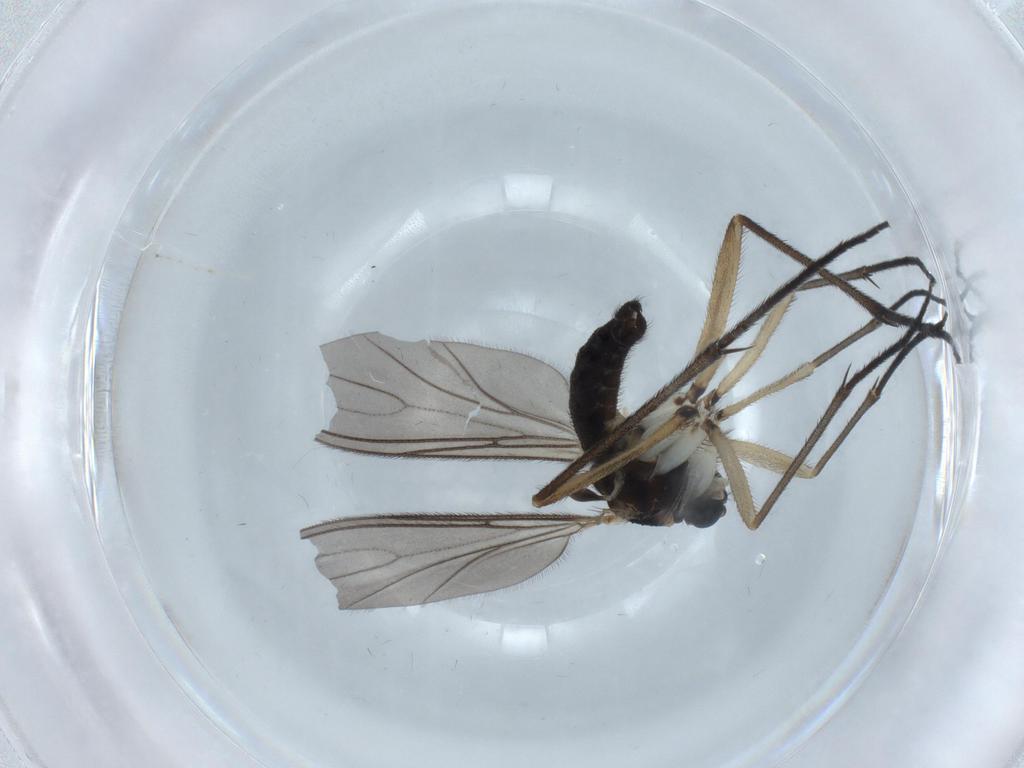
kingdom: Animalia
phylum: Arthropoda
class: Insecta
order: Diptera
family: Sciaridae
